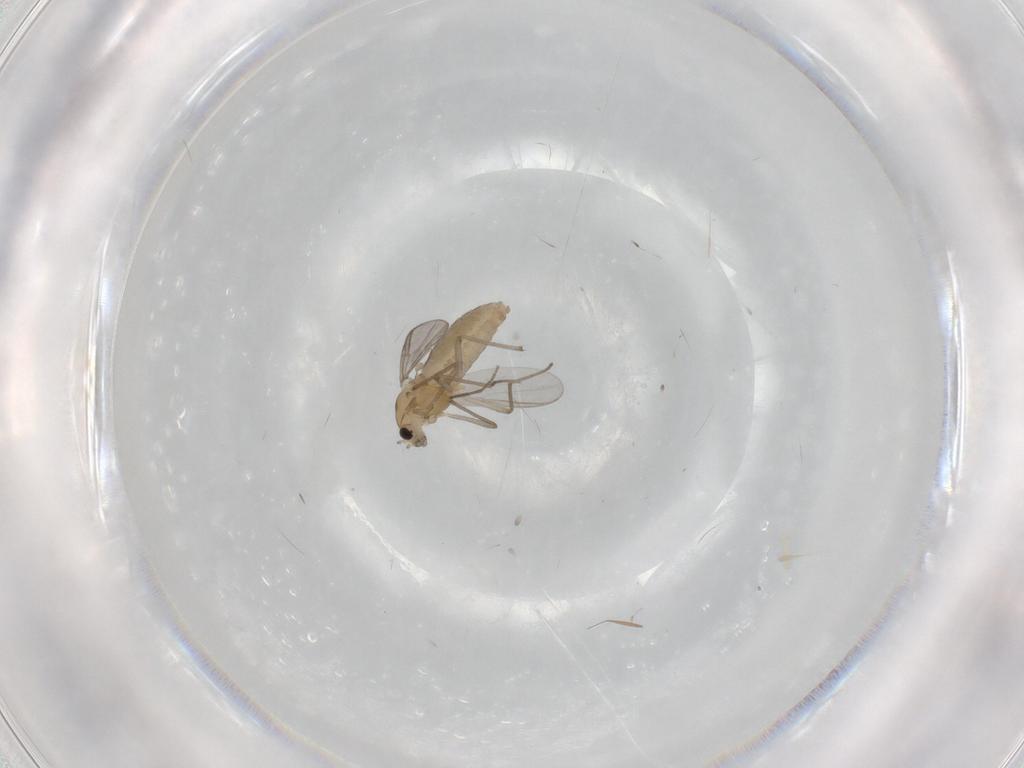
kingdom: Animalia
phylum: Arthropoda
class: Insecta
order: Diptera
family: Chironomidae
